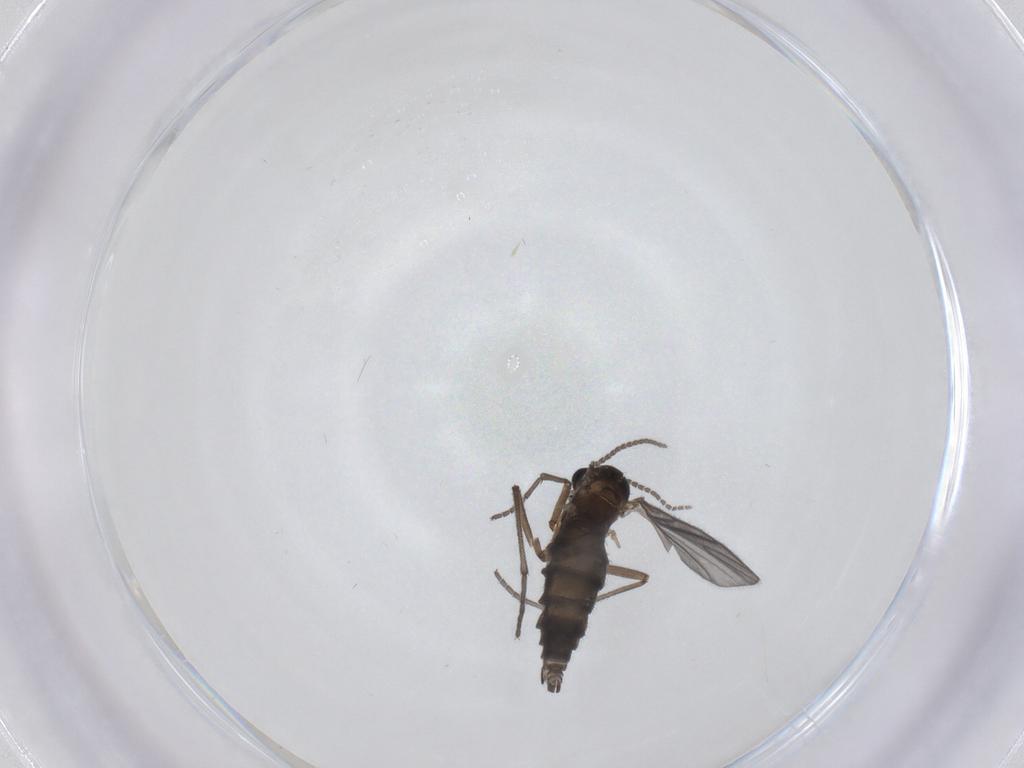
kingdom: Animalia
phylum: Arthropoda
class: Insecta
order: Diptera
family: Sciaridae
